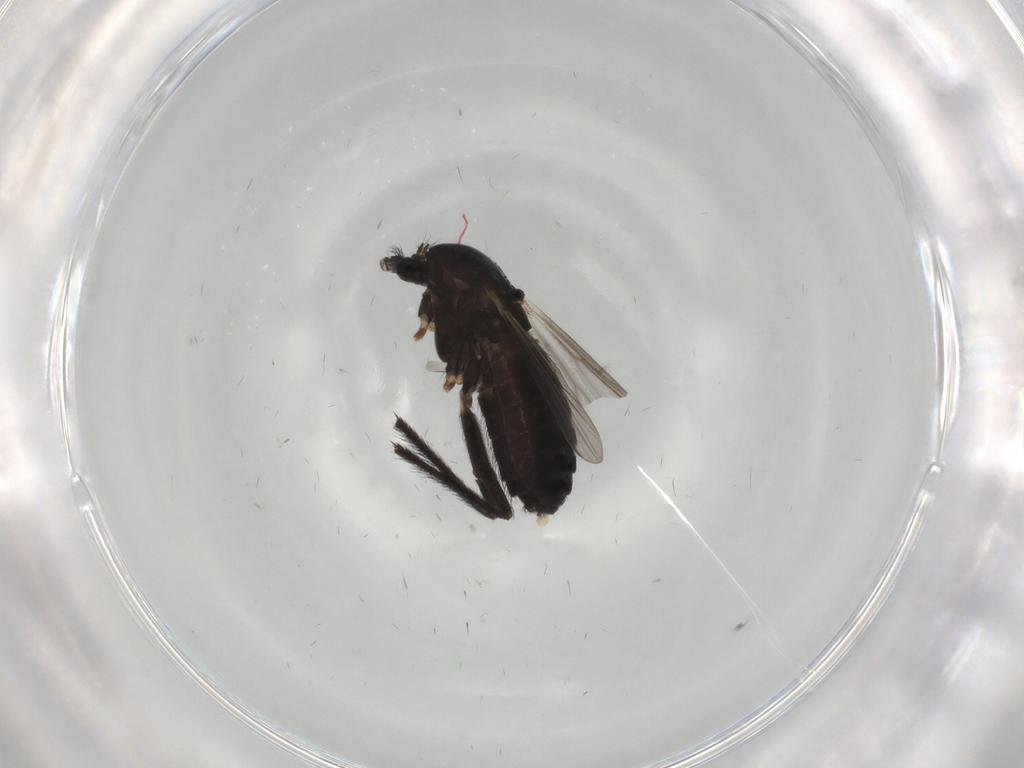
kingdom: Animalia
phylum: Arthropoda
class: Insecta
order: Diptera
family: Chironomidae
